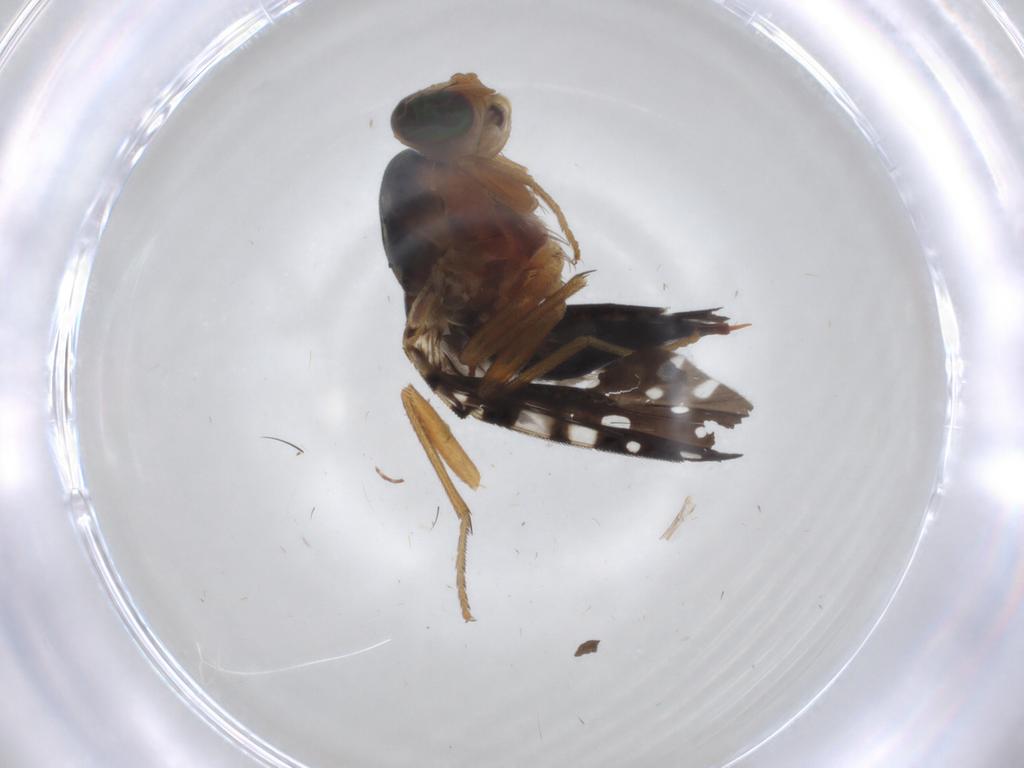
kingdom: Animalia
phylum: Arthropoda
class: Insecta
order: Diptera
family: Tephritidae
